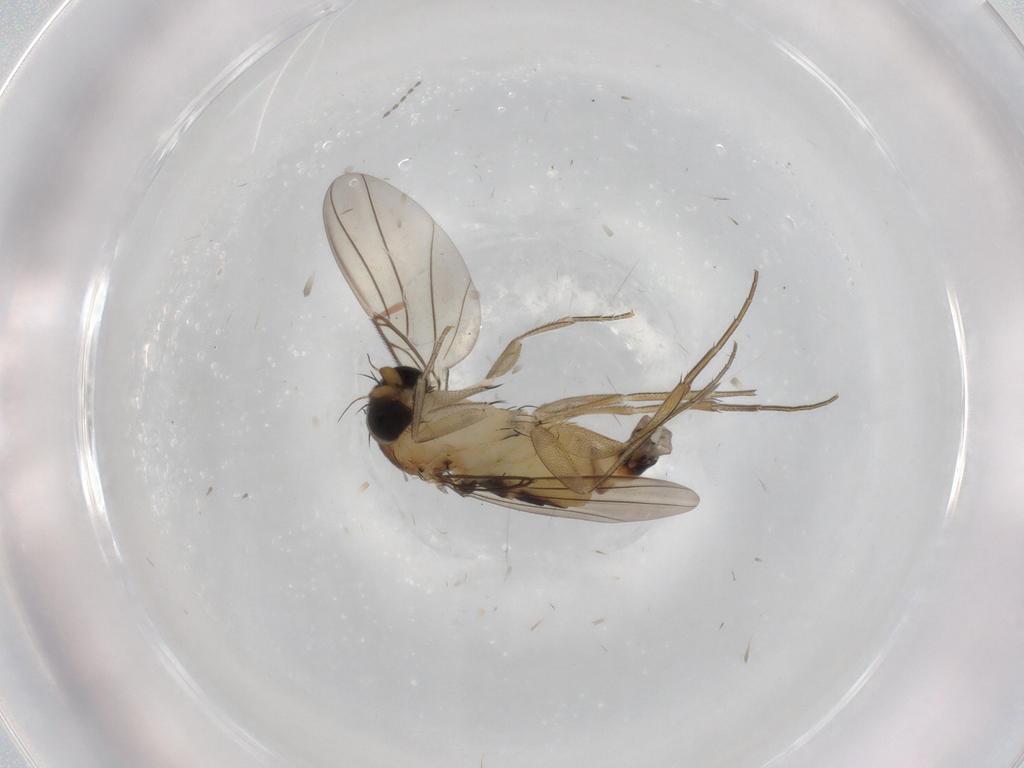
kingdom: Animalia
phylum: Arthropoda
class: Insecta
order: Diptera
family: Phoridae
